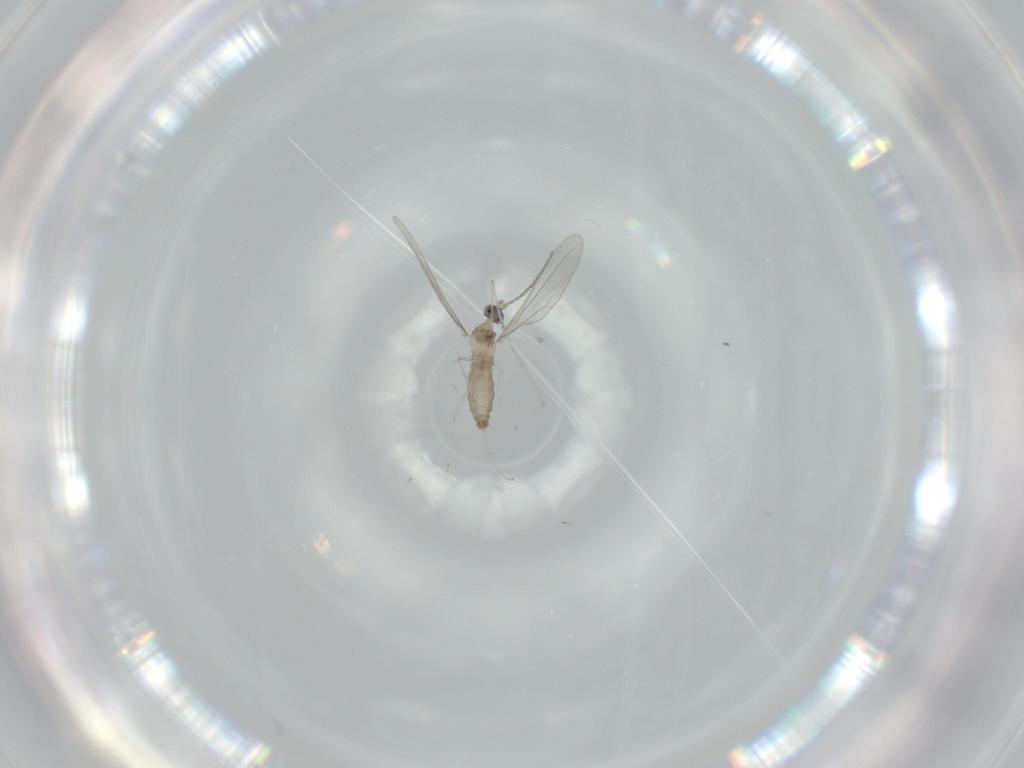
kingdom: Animalia
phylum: Arthropoda
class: Insecta
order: Diptera
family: Cecidomyiidae
